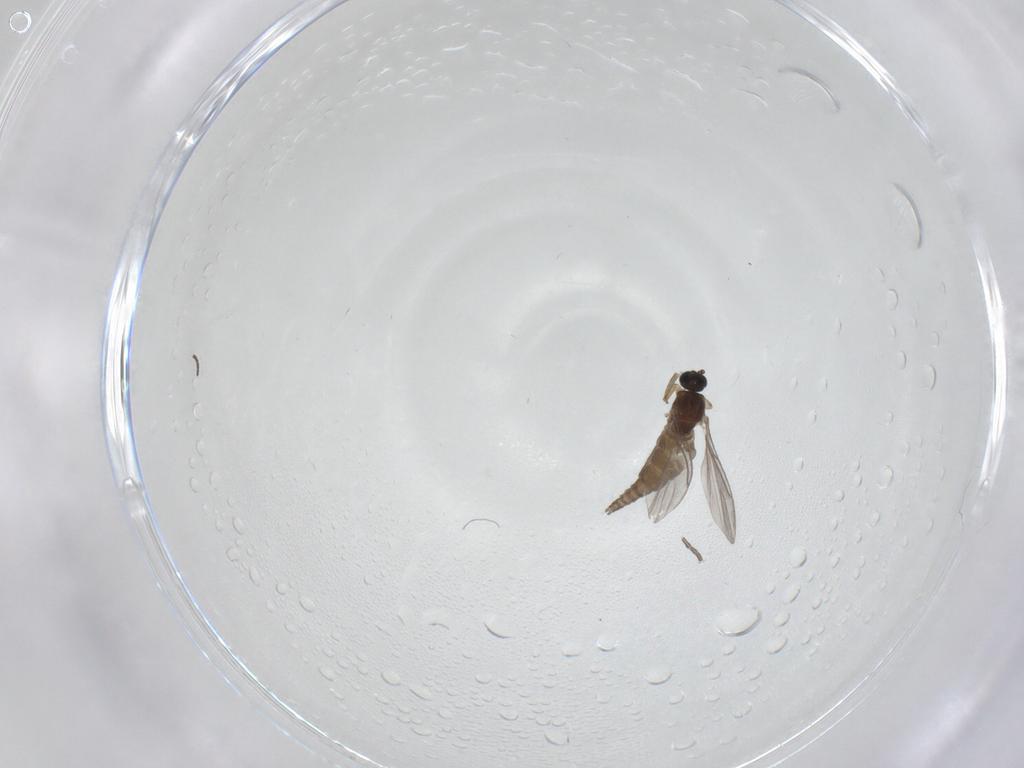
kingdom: Animalia
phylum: Arthropoda
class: Insecta
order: Diptera
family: Sciaridae
